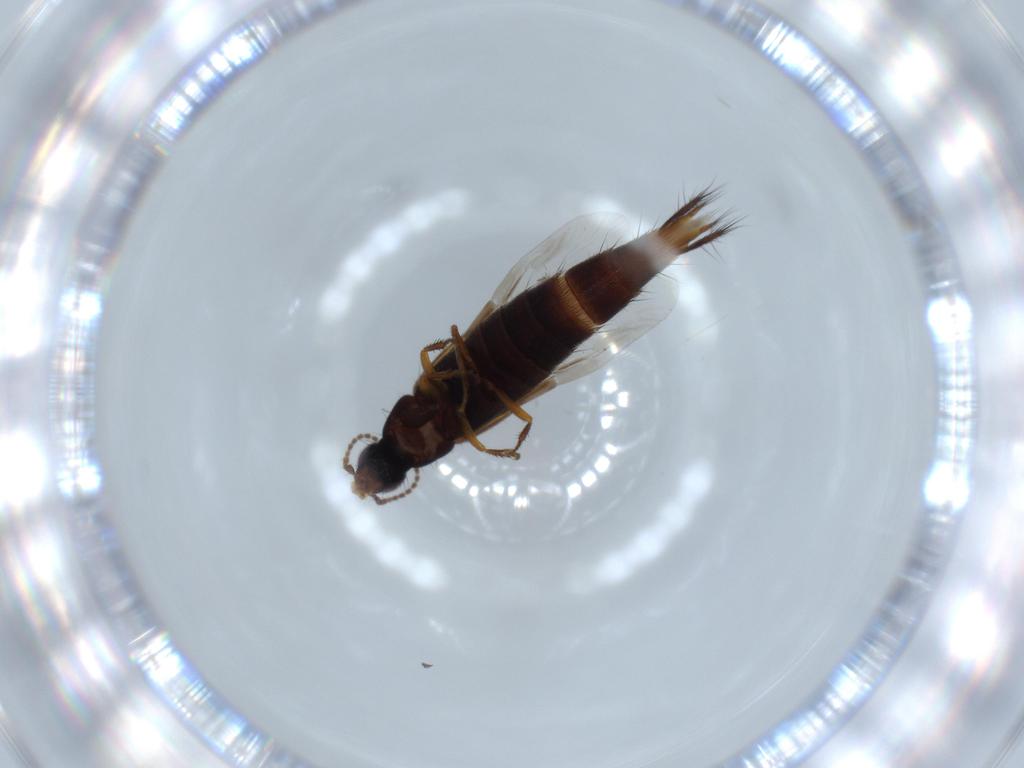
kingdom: Animalia
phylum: Arthropoda
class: Insecta
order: Coleoptera
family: Staphylinidae
